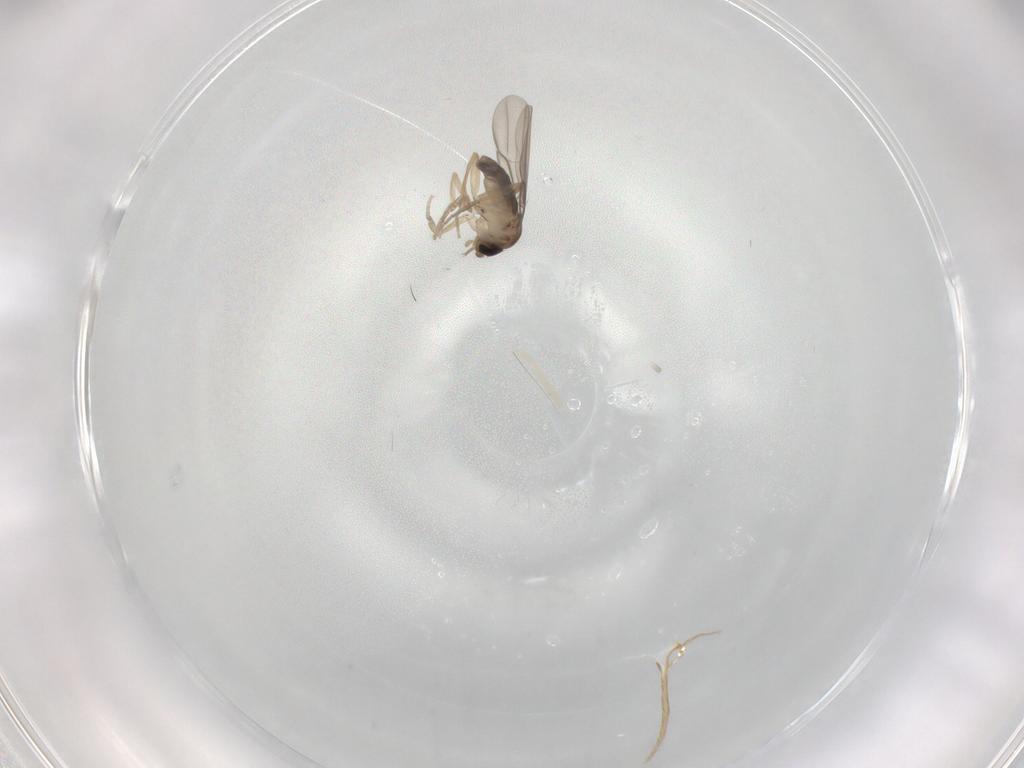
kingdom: Animalia
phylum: Arthropoda
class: Insecta
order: Diptera
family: Phoridae
